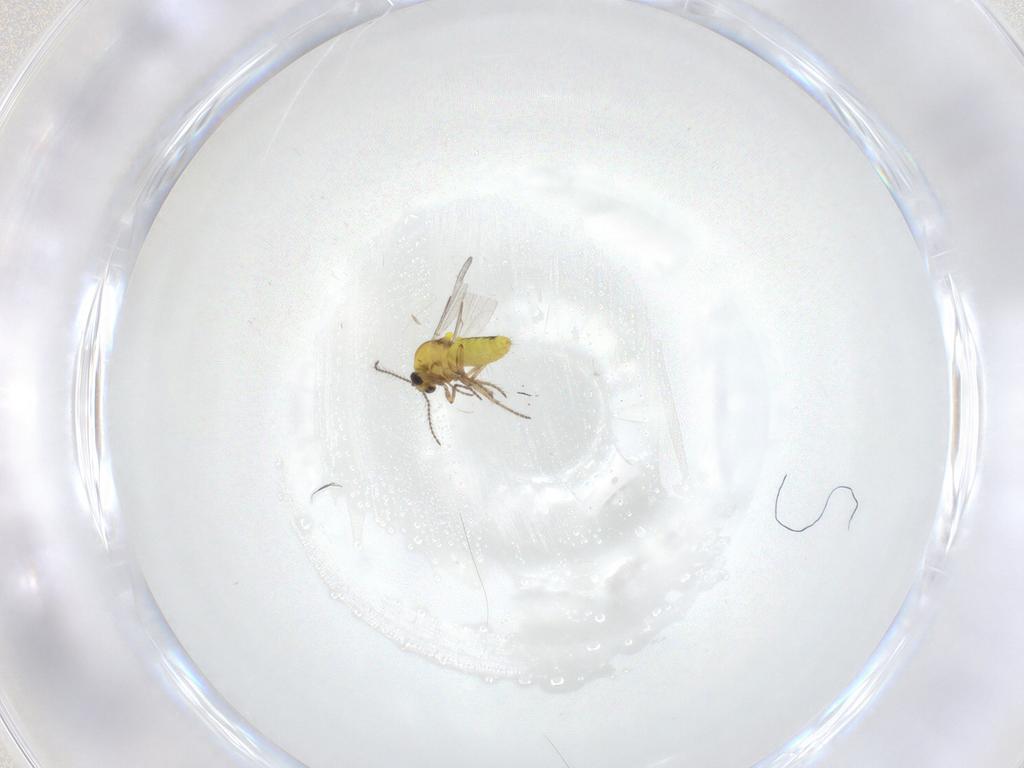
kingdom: Animalia
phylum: Arthropoda
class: Insecta
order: Diptera
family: Ceratopogonidae
